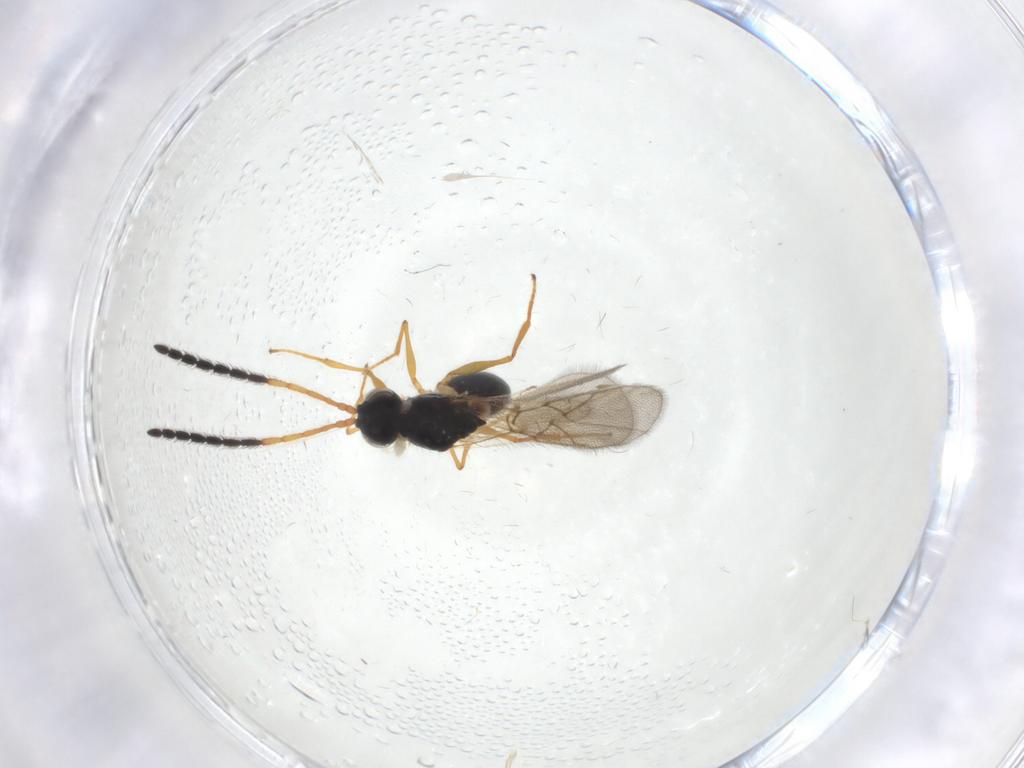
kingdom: Animalia
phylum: Arthropoda
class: Insecta
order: Hymenoptera
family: Figitidae
